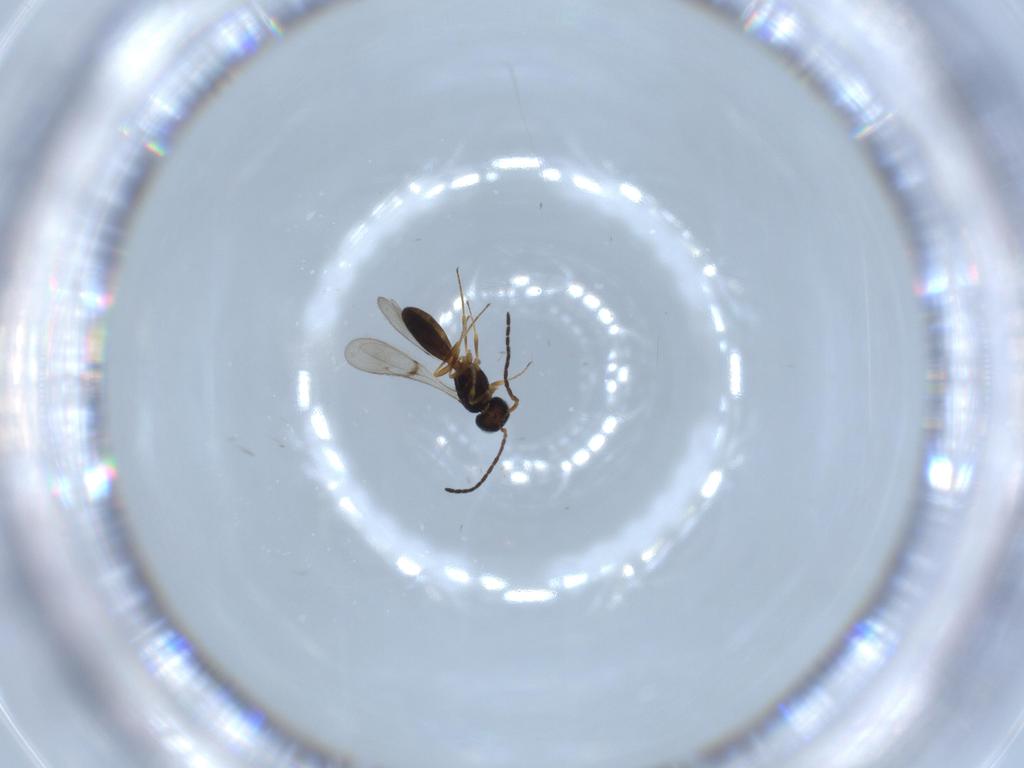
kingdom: Animalia
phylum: Arthropoda
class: Insecta
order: Hymenoptera
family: Scelionidae
